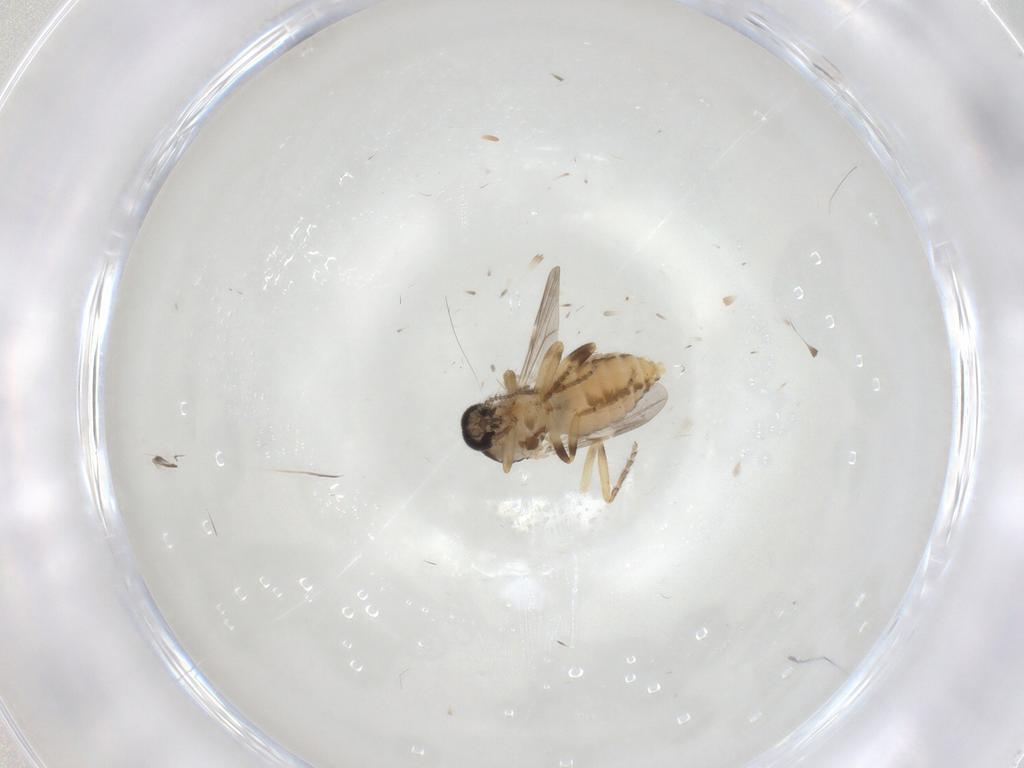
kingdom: Animalia
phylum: Arthropoda
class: Insecta
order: Diptera
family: Ceratopogonidae
